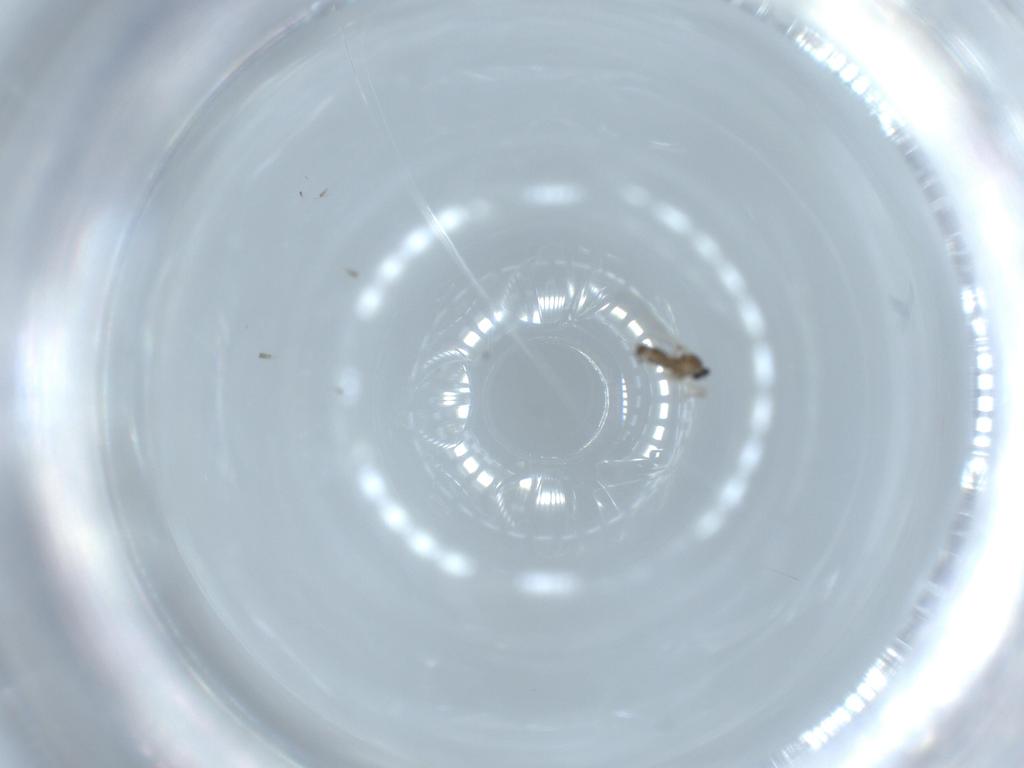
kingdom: Animalia
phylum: Arthropoda
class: Insecta
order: Diptera
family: Cecidomyiidae
